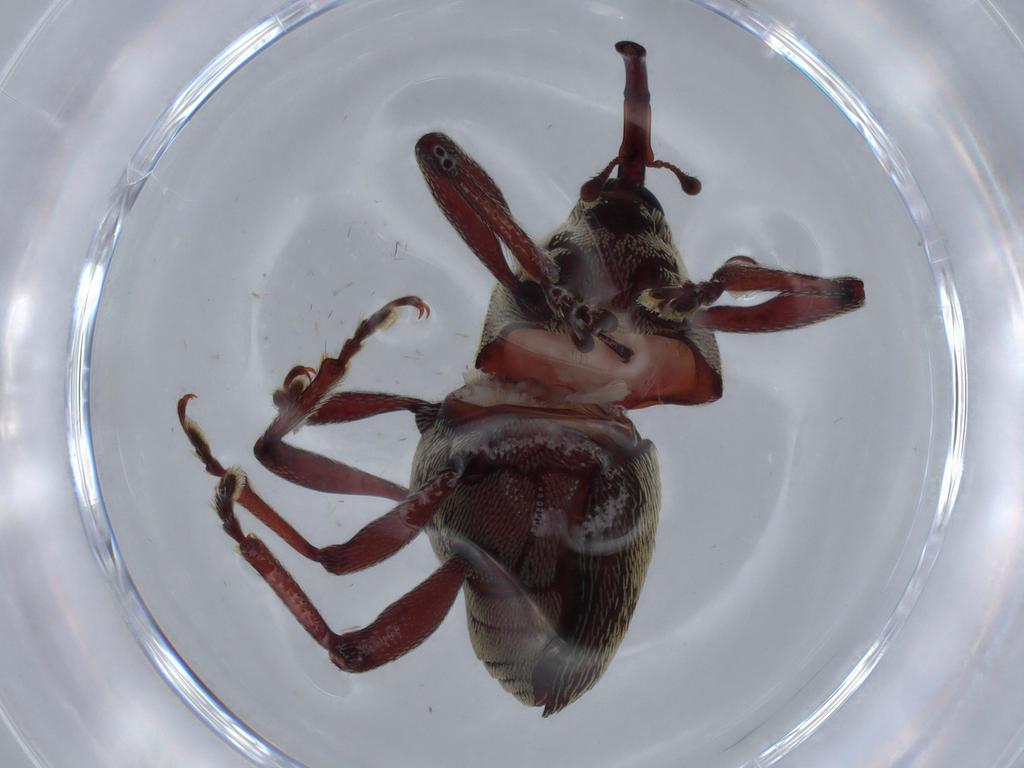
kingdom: Animalia
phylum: Arthropoda
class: Insecta
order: Coleoptera
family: Curculionidae
